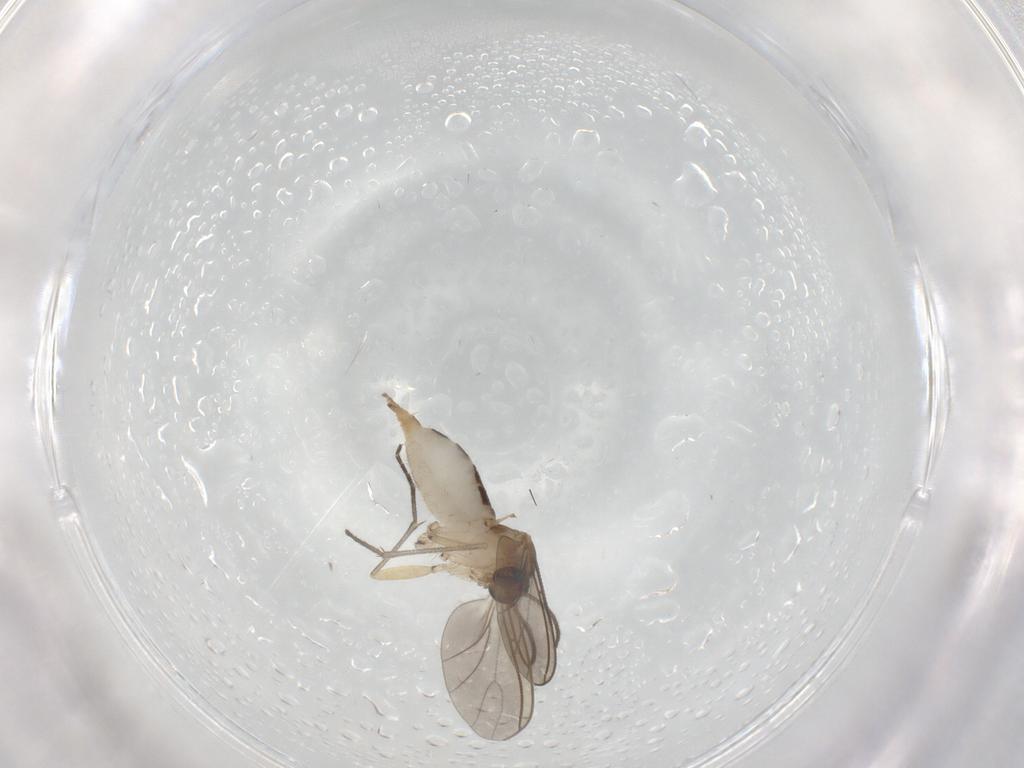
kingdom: Animalia
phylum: Arthropoda
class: Insecta
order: Diptera
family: Sciaridae
